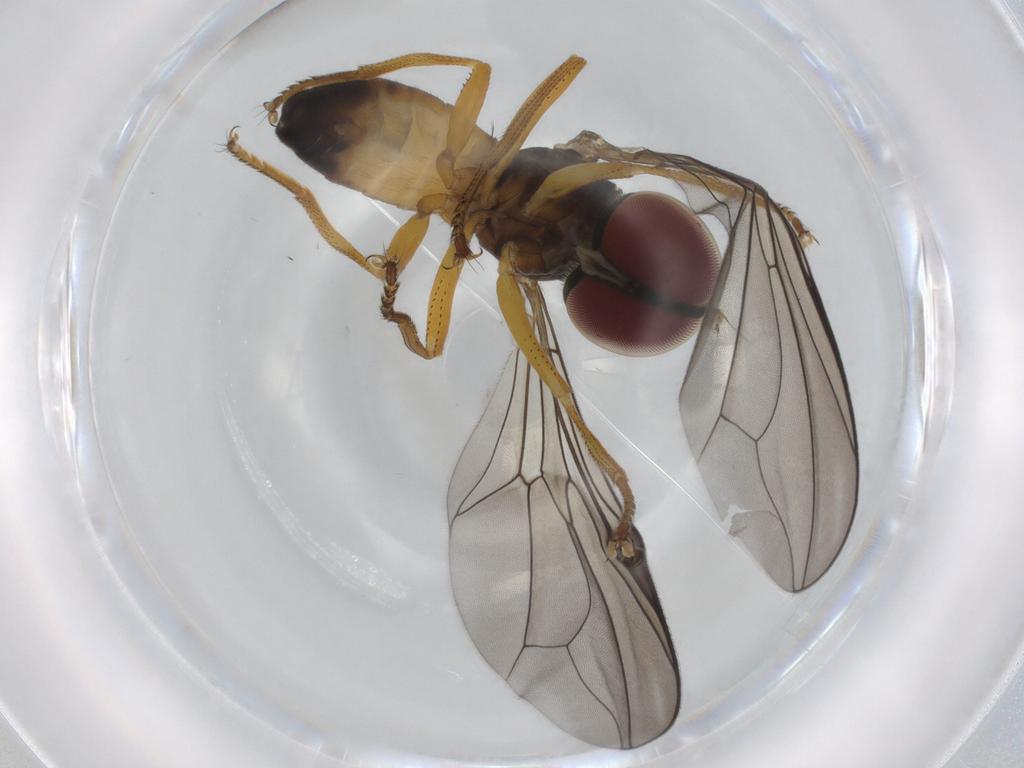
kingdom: Animalia
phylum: Arthropoda
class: Insecta
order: Diptera
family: Pipunculidae
